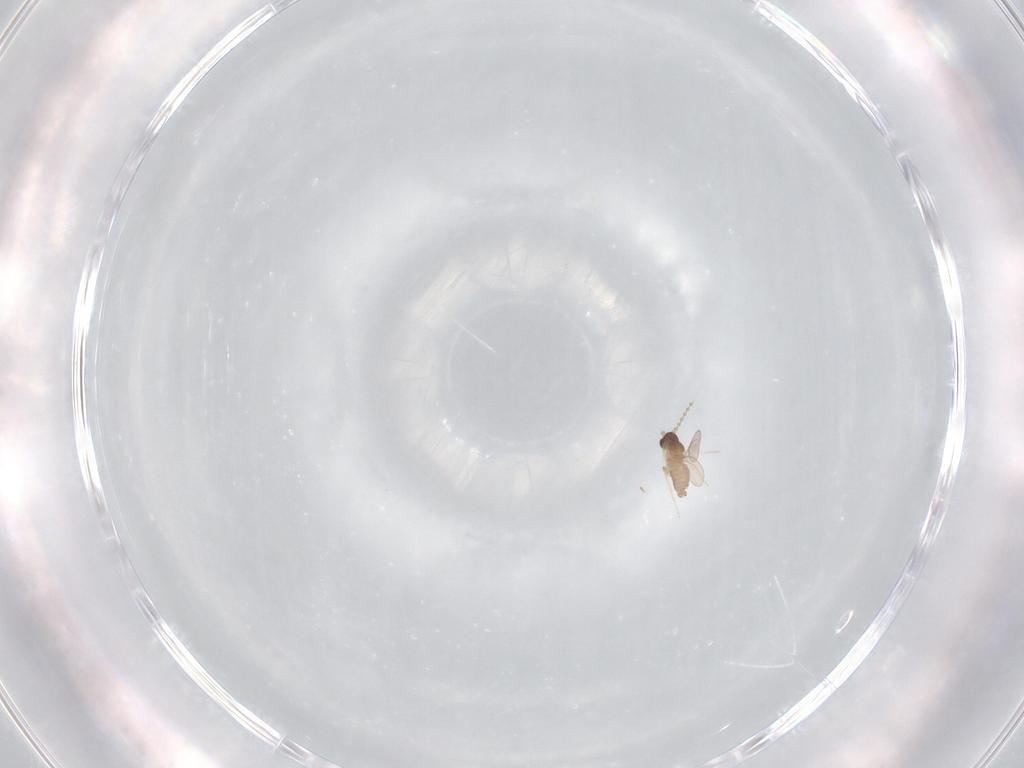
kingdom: Animalia
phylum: Arthropoda
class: Insecta
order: Diptera
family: Cecidomyiidae
